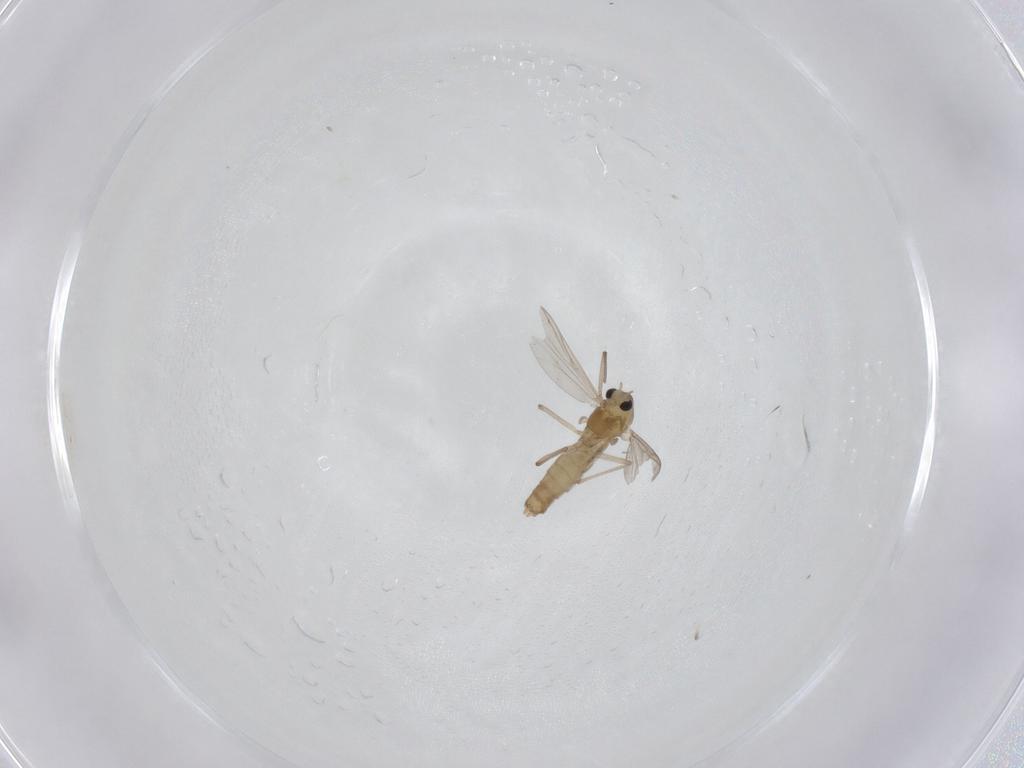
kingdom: Animalia
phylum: Arthropoda
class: Insecta
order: Diptera
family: Chironomidae
